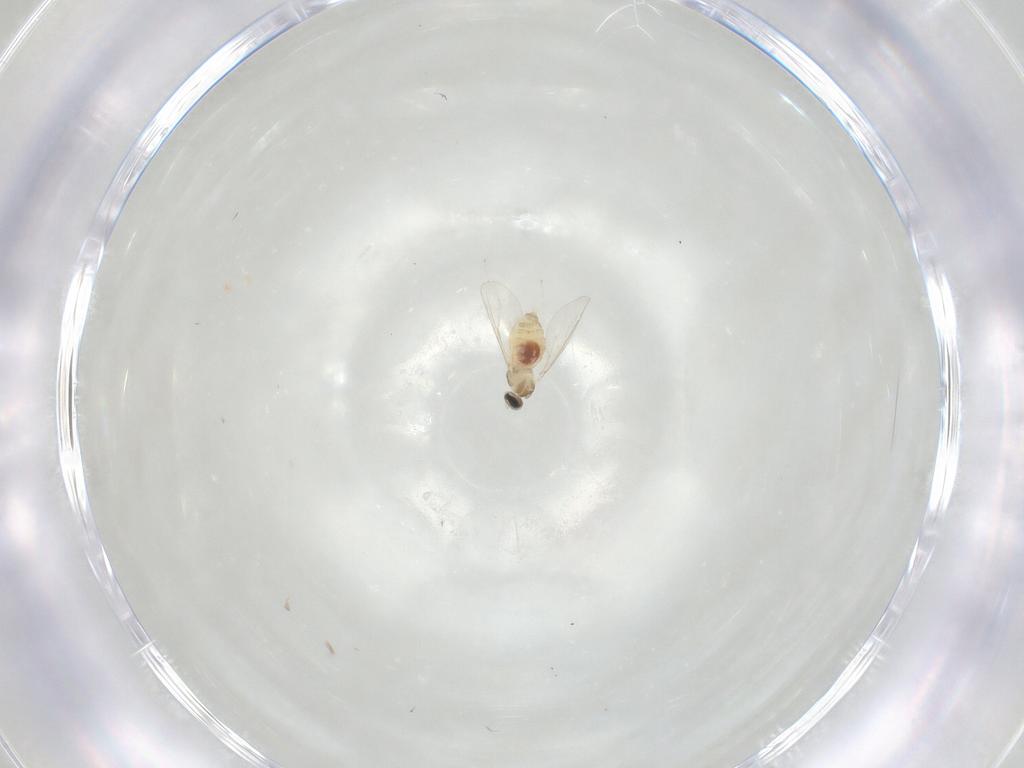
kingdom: Animalia
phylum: Arthropoda
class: Insecta
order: Diptera
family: Cecidomyiidae
